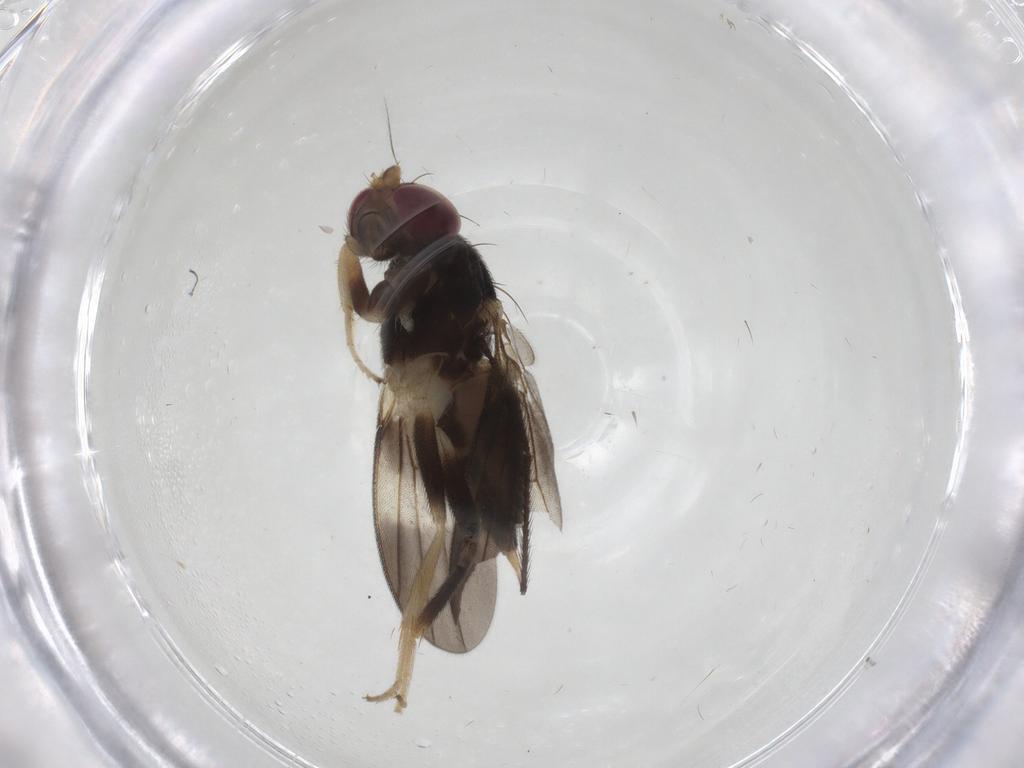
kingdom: Animalia
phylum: Arthropoda
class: Insecta
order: Diptera
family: Clusiidae
